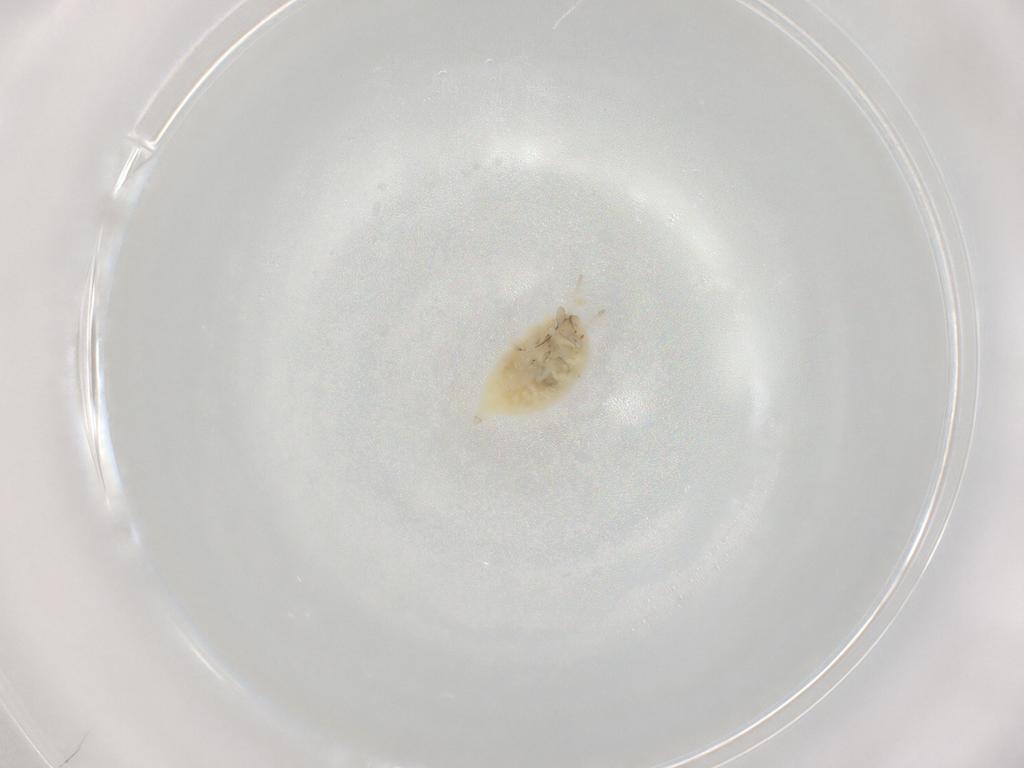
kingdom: Animalia
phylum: Arthropoda
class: Insecta
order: Neuroptera
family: Coniopterygidae
